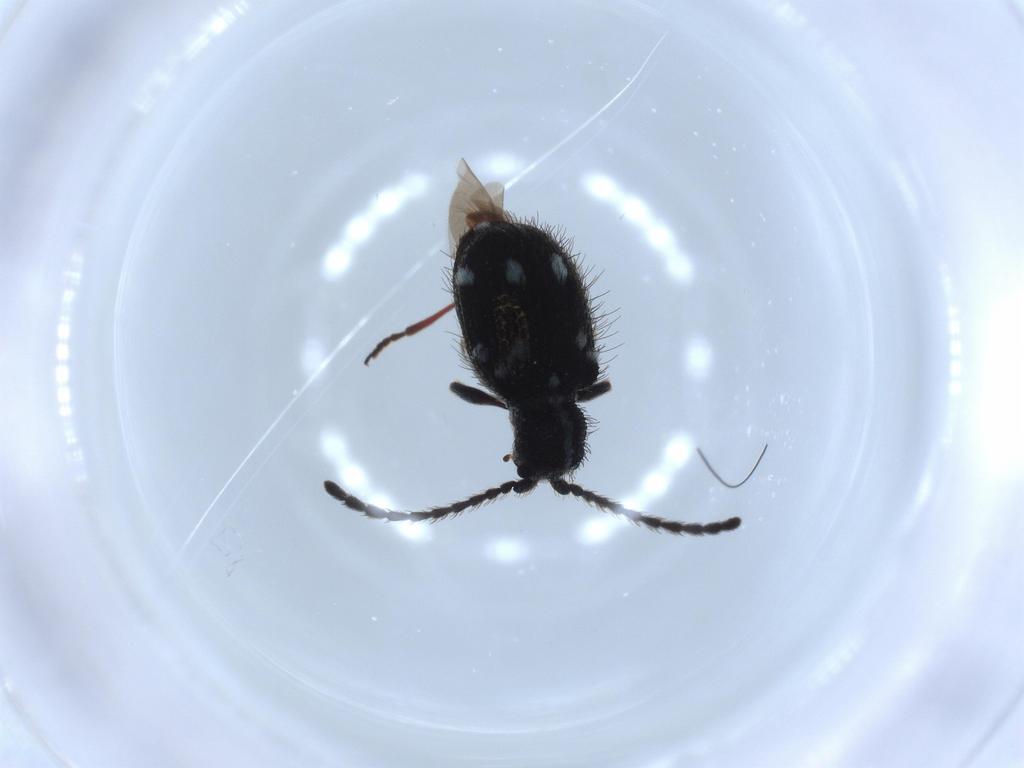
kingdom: Animalia
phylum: Arthropoda
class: Insecta
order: Coleoptera
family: Ptinidae
